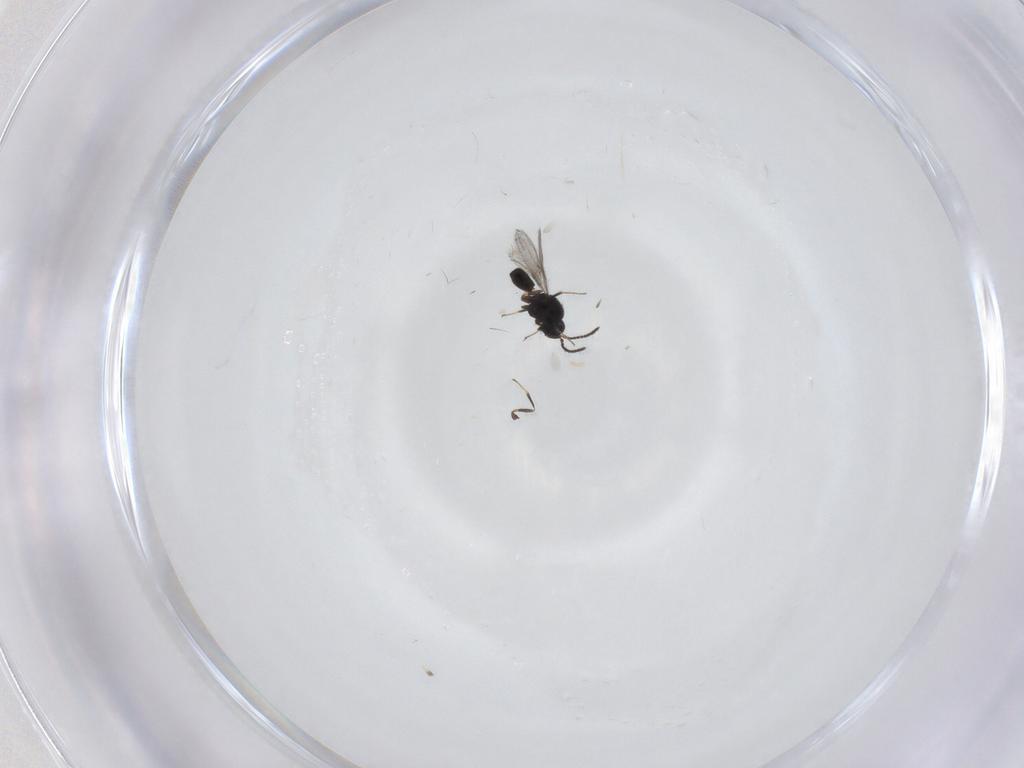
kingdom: Animalia
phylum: Arthropoda
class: Insecta
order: Hymenoptera
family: Scelionidae
